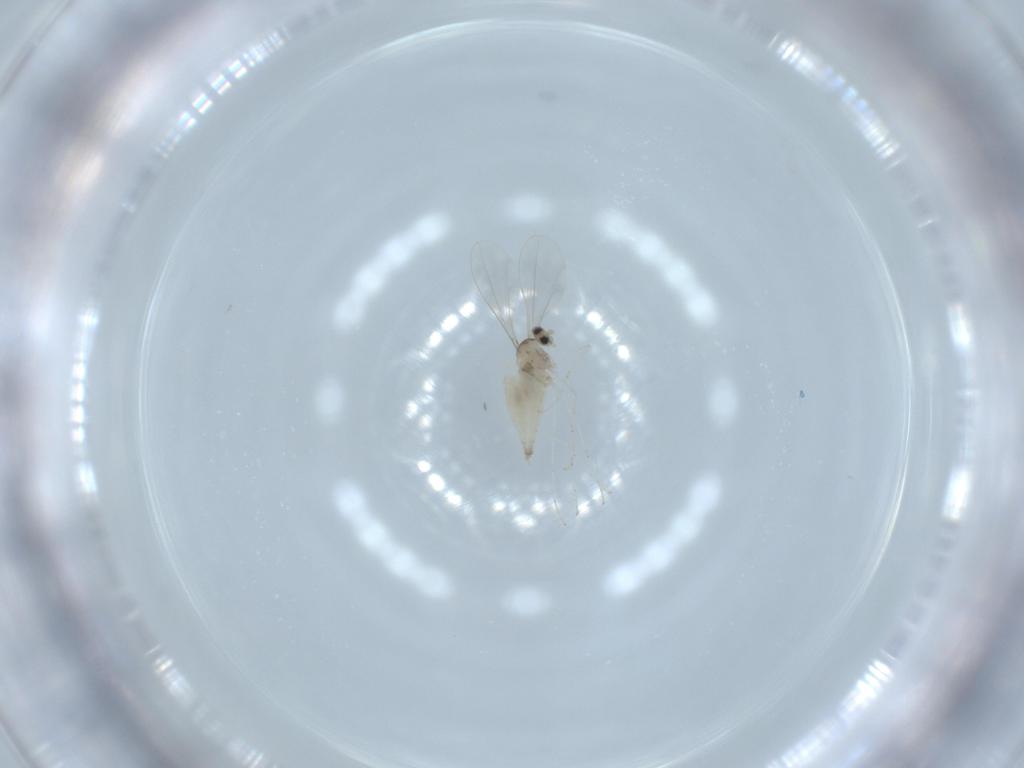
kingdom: Animalia
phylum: Arthropoda
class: Insecta
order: Diptera
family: Cecidomyiidae
